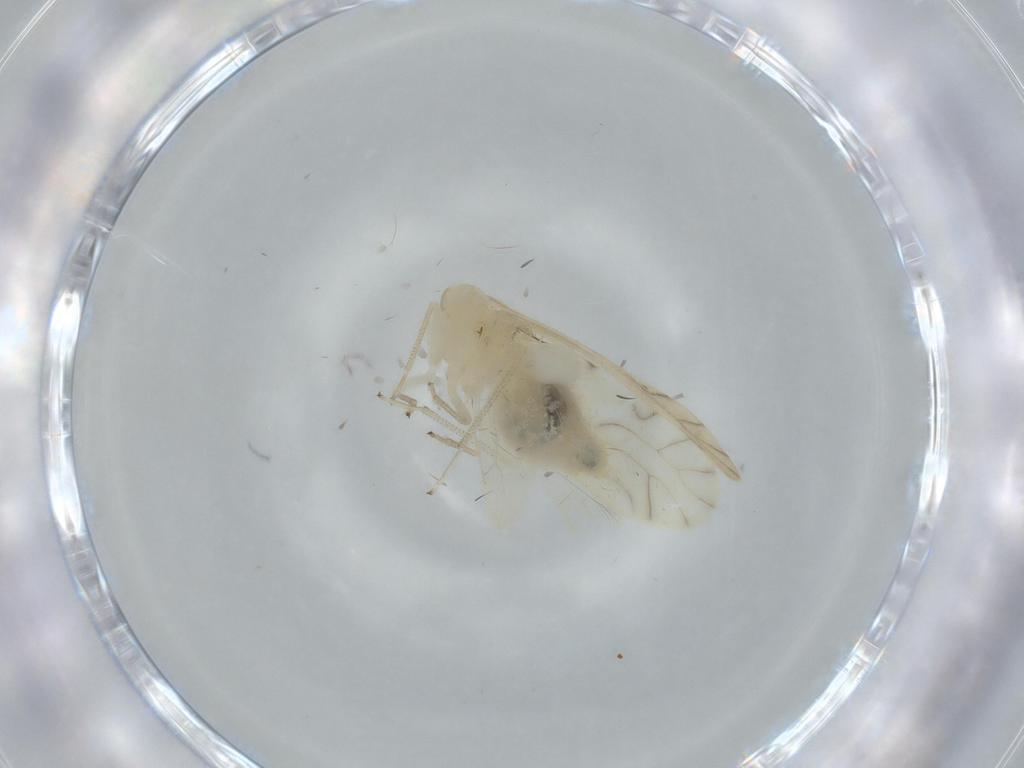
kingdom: Animalia
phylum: Arthropoda
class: Insecta
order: Psocodea
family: Caeciliusidae
